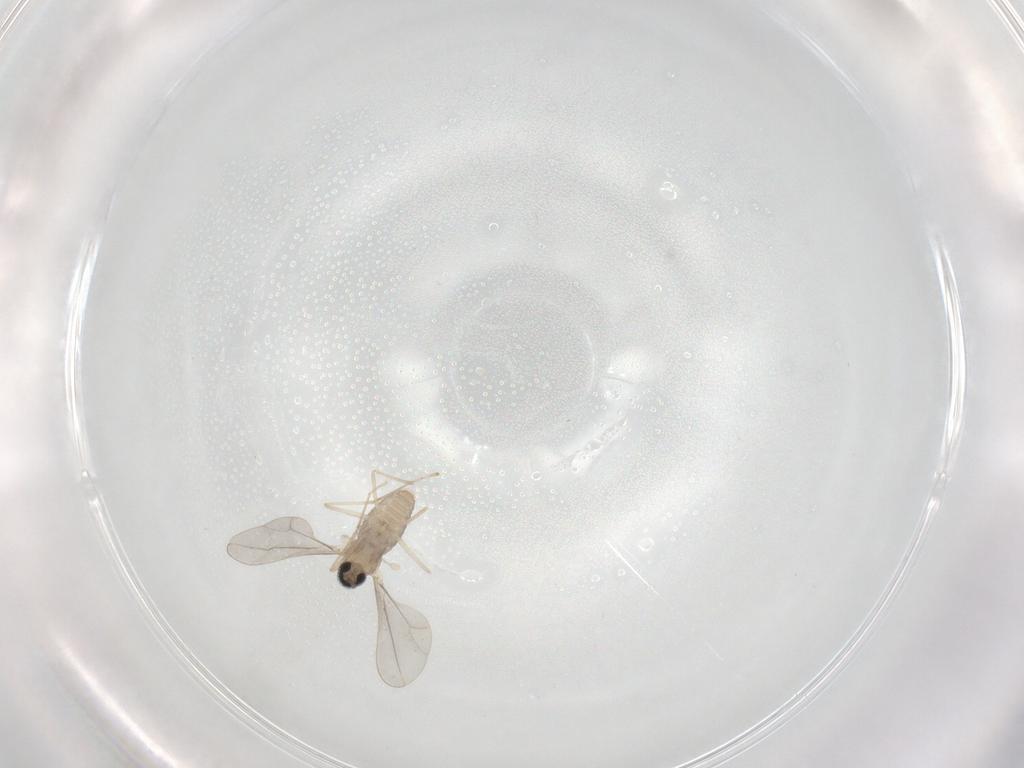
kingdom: Animalia
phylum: Arthropoda
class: Insecta
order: Diptera
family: Cecidomyiidae
